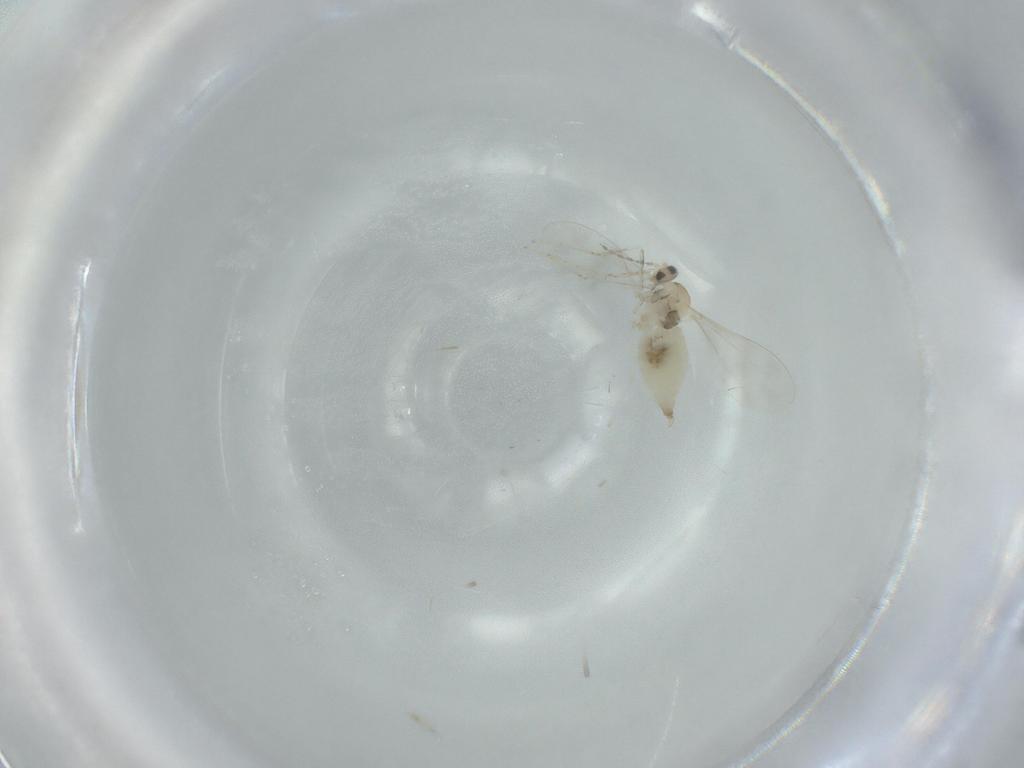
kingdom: Animalia
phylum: Arthropoda
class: Insecta
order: Diptera
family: Cecidomyiidae
